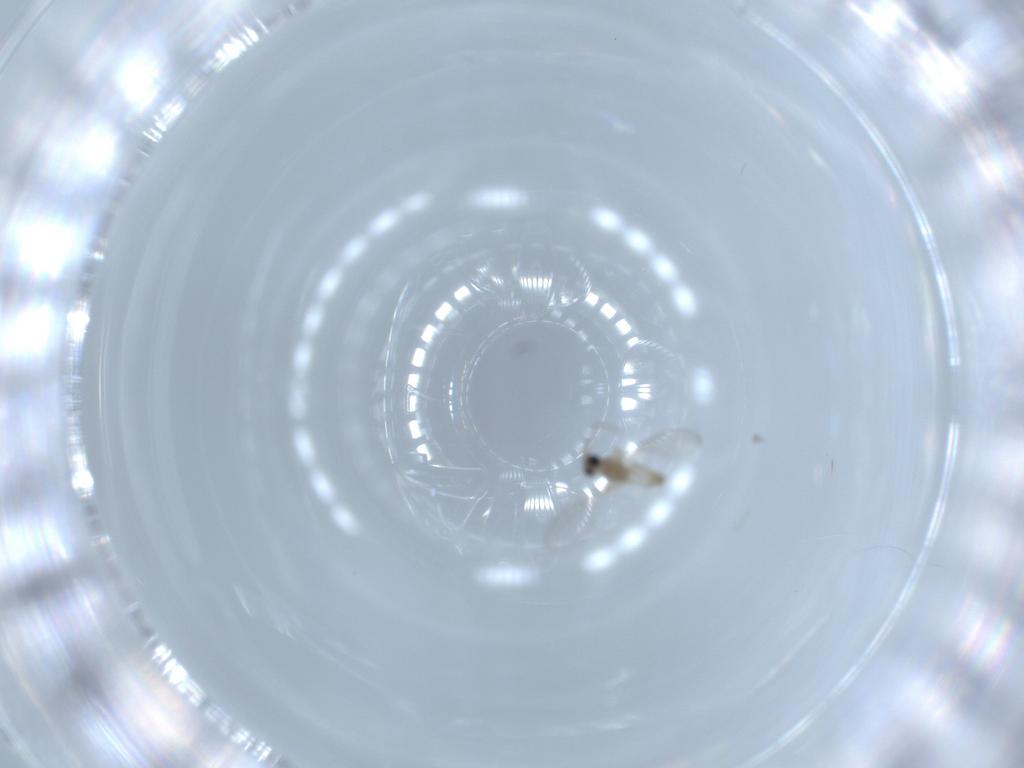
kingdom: Animalia
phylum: Arthropoda
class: Insecta
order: Diptera
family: Cecidomyiidae
